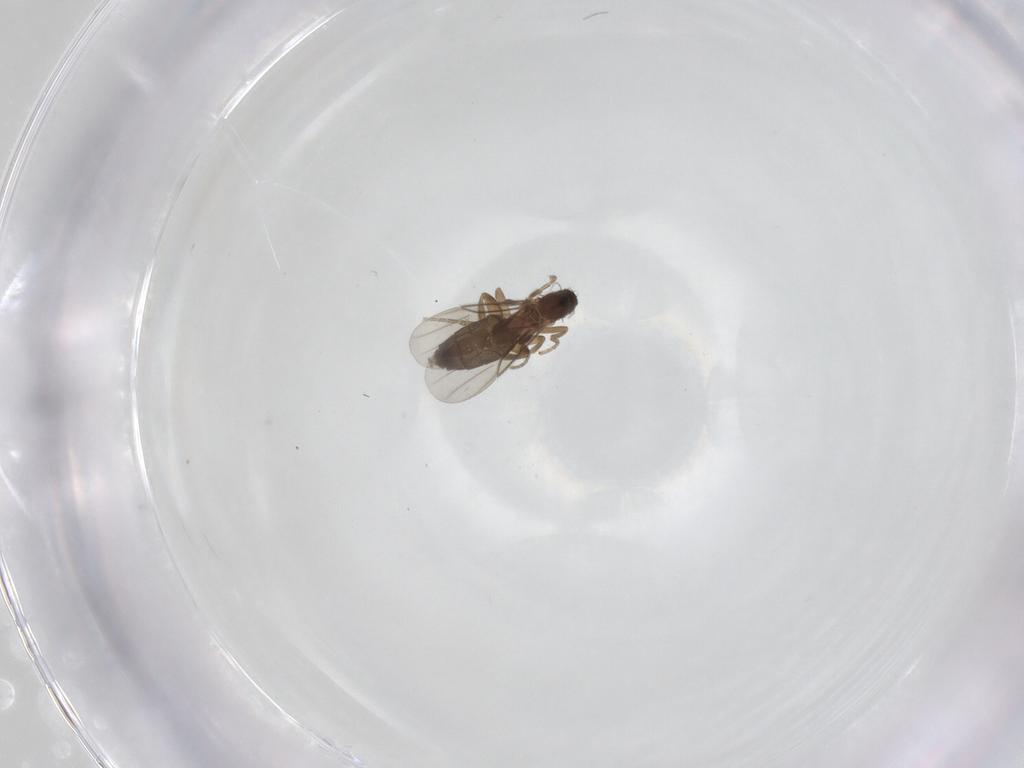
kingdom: Animalia
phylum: Arthropoda
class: Insecta
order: Diptera
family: Phoridae
